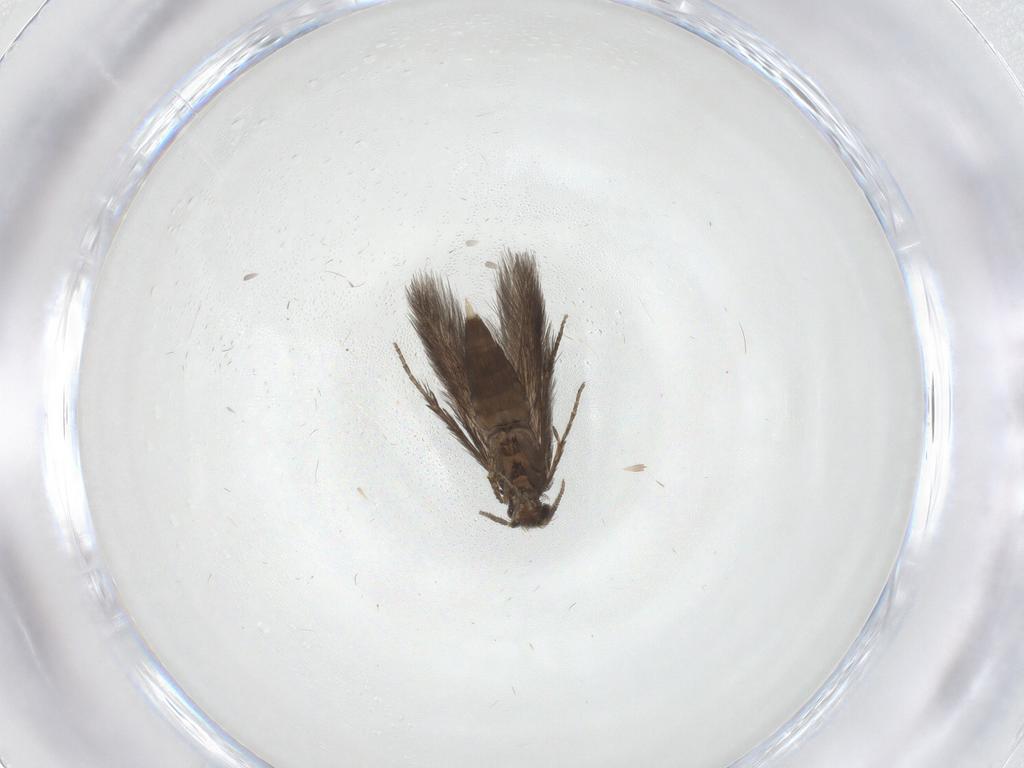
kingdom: Animalia
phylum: Arthropoda
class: Insecta
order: Trichoptera
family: Hydroptilidae
